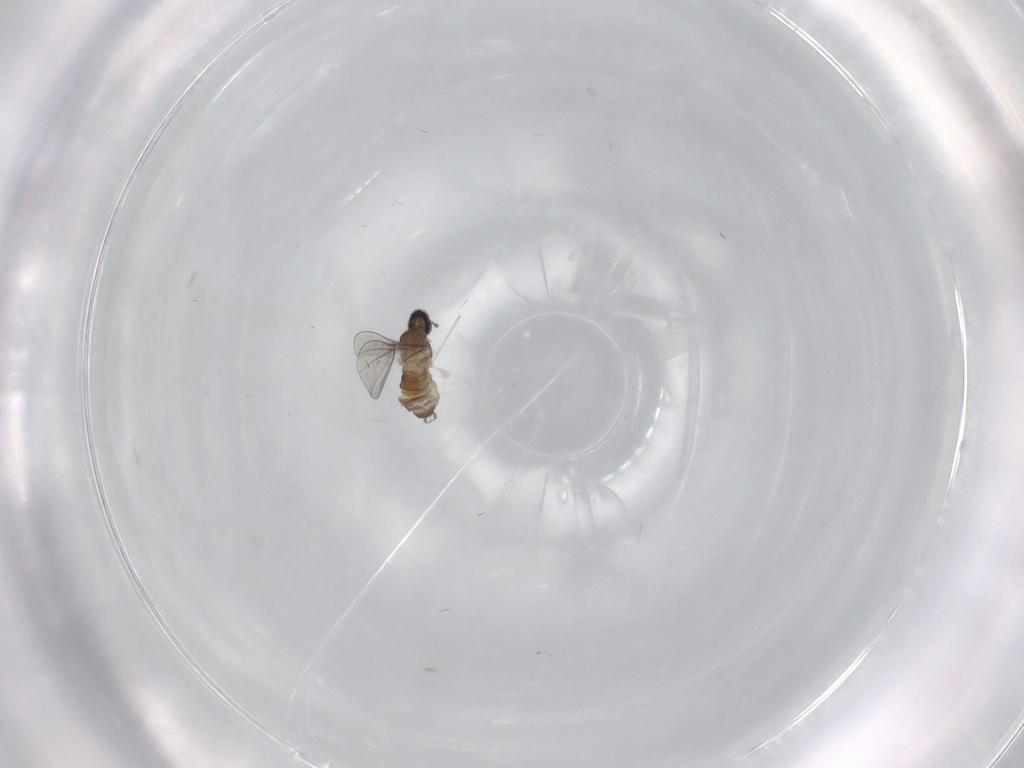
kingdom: Animalia
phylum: Arthropoda
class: Insecta
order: Diptera
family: Cecidomyiidae
